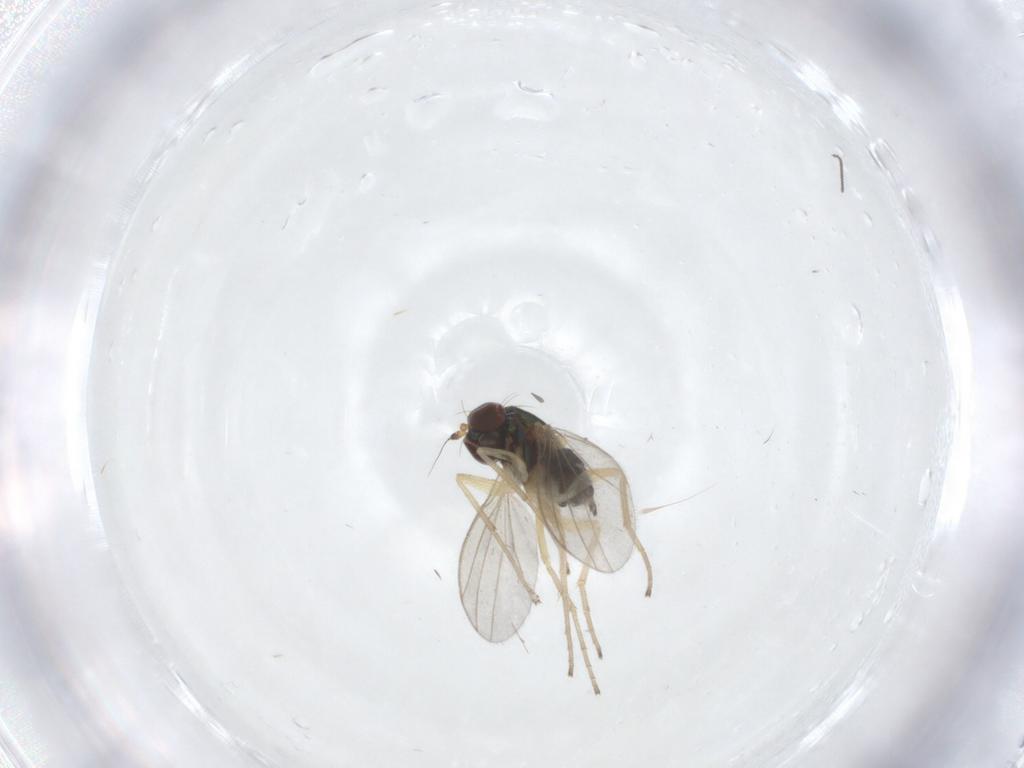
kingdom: Animalia
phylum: Arthropoda
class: Insecta
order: Diptera
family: Dolichopodidae
